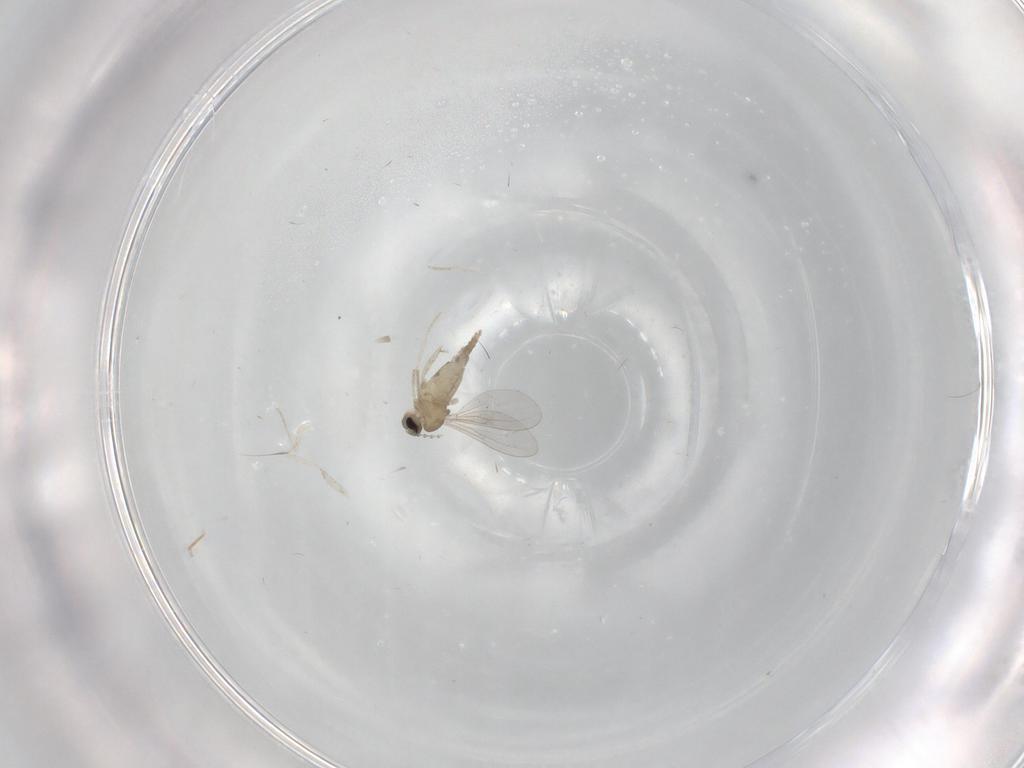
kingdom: Animalia
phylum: Arthropoda
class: Insecta
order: Diptera
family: Cecidomyiidae
